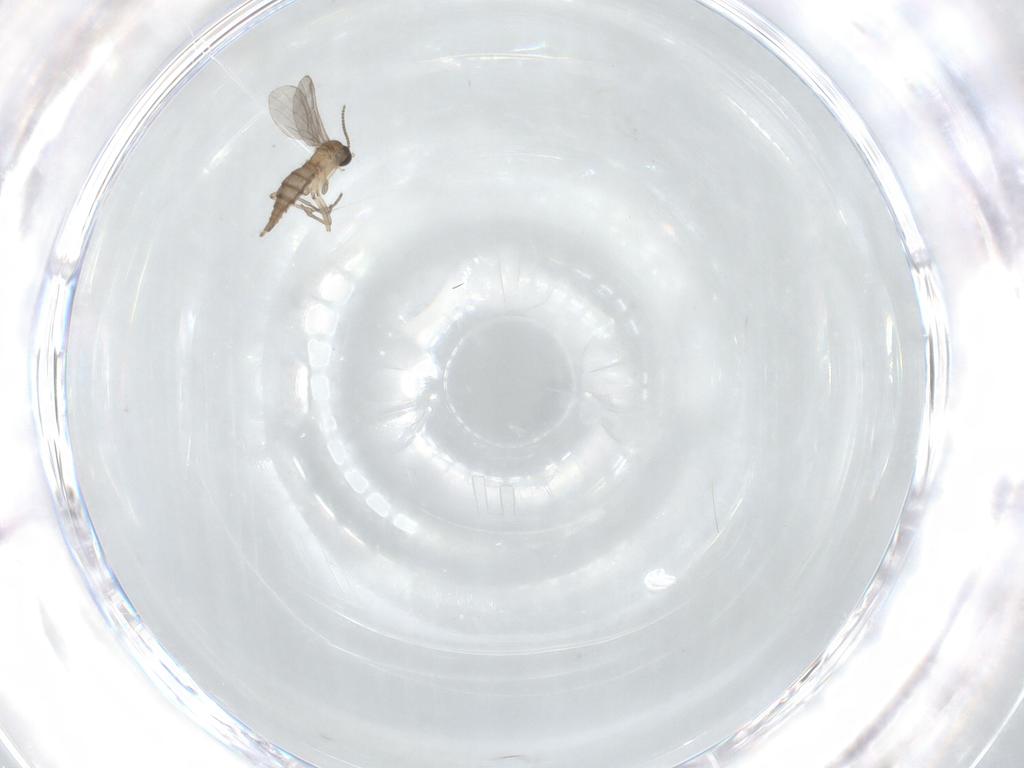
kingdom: Animalia
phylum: Arthropoda
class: Insecta
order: Diptera
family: Sciaridae
